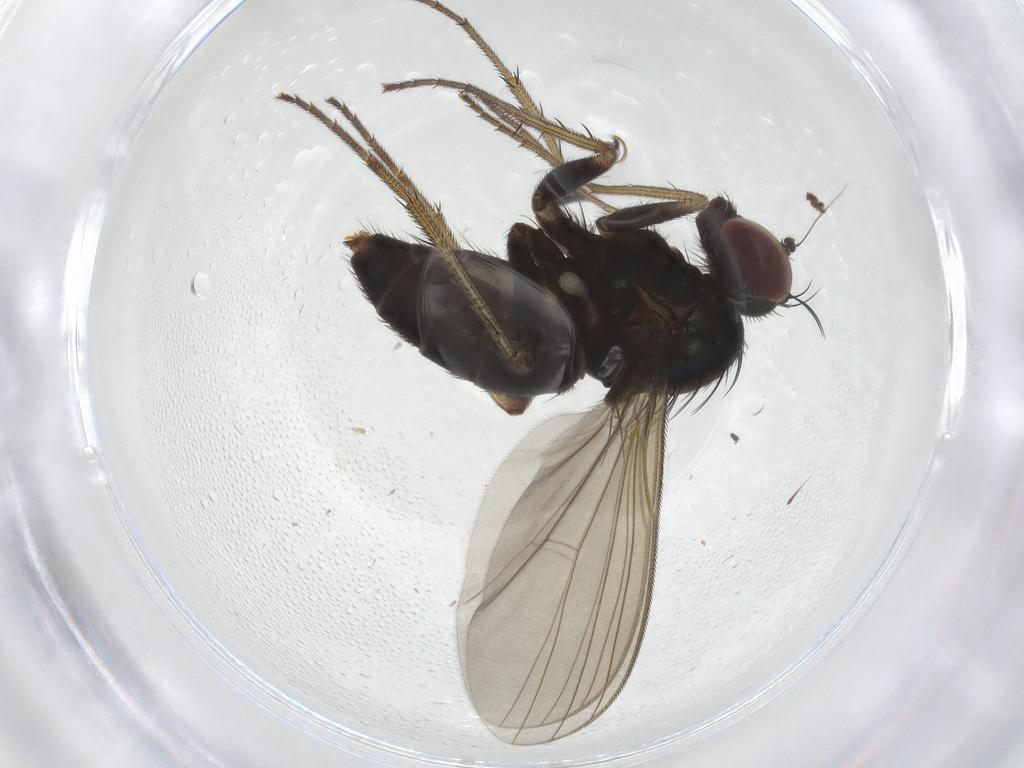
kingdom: Animalia
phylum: Arthropoda
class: Insecta
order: Diptera
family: Dolichopodidae
